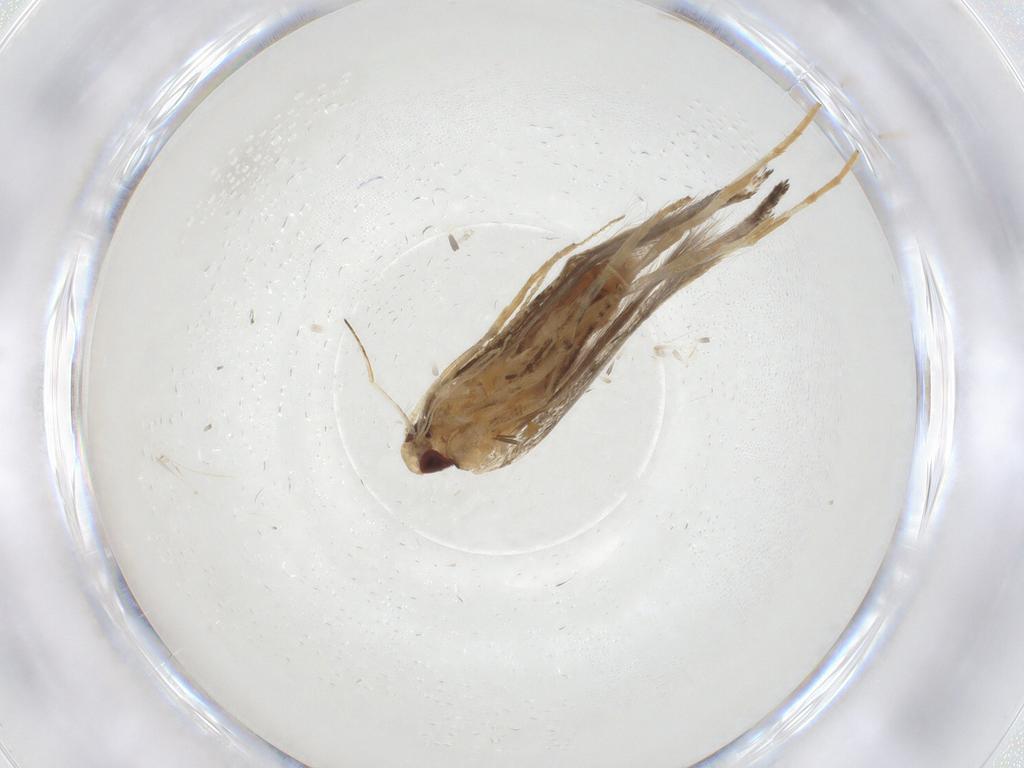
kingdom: Animalia
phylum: Arthropoda
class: Insecta
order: Lepidoptera
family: Cosmopterigidae
